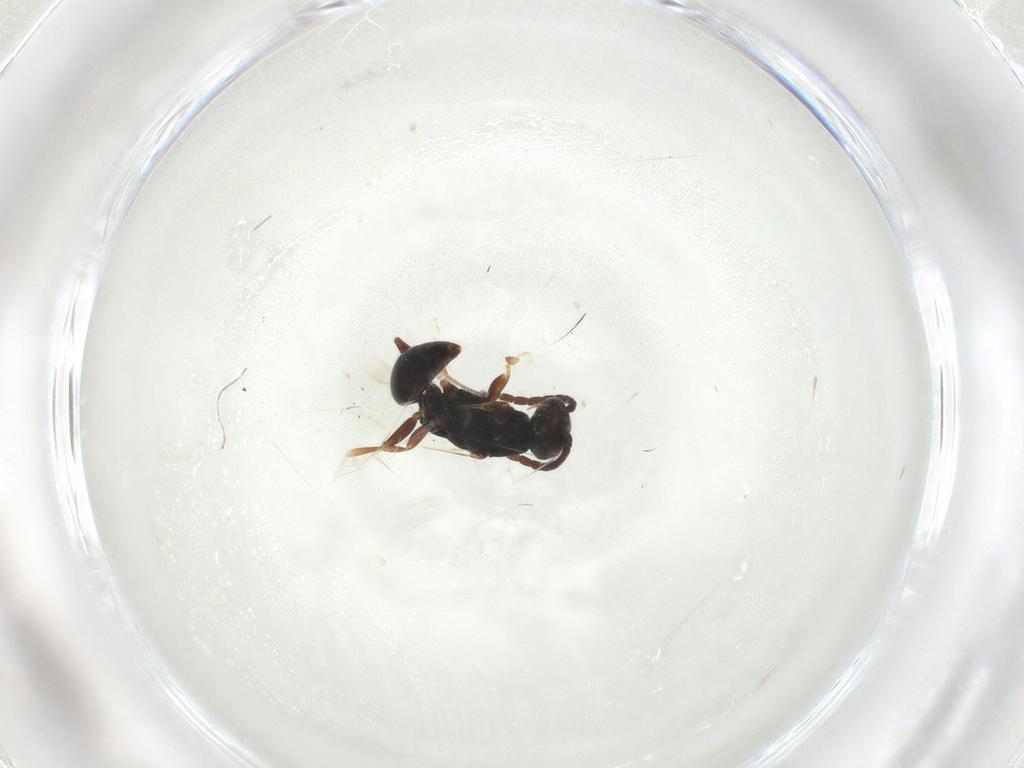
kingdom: Animalia
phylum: Arthropoda
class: Insecta
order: Hymenoptera
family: Bethylidae
